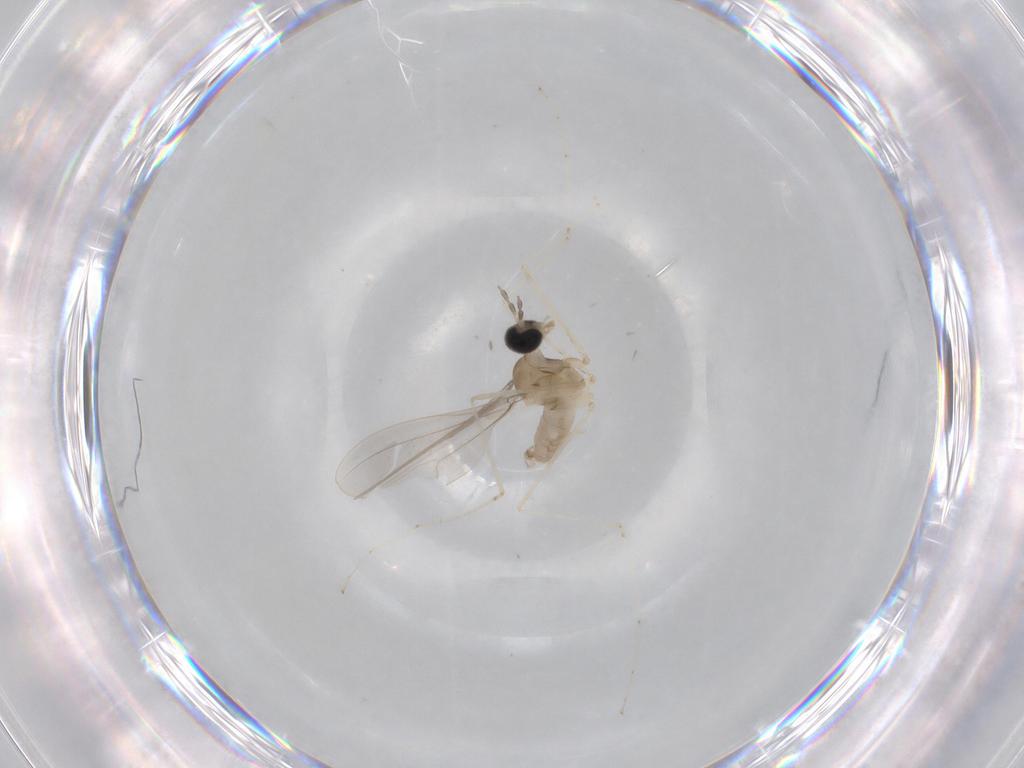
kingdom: Animalia
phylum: Arthropoda
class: Insecta
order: Diptera
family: Cecidomyiidae
